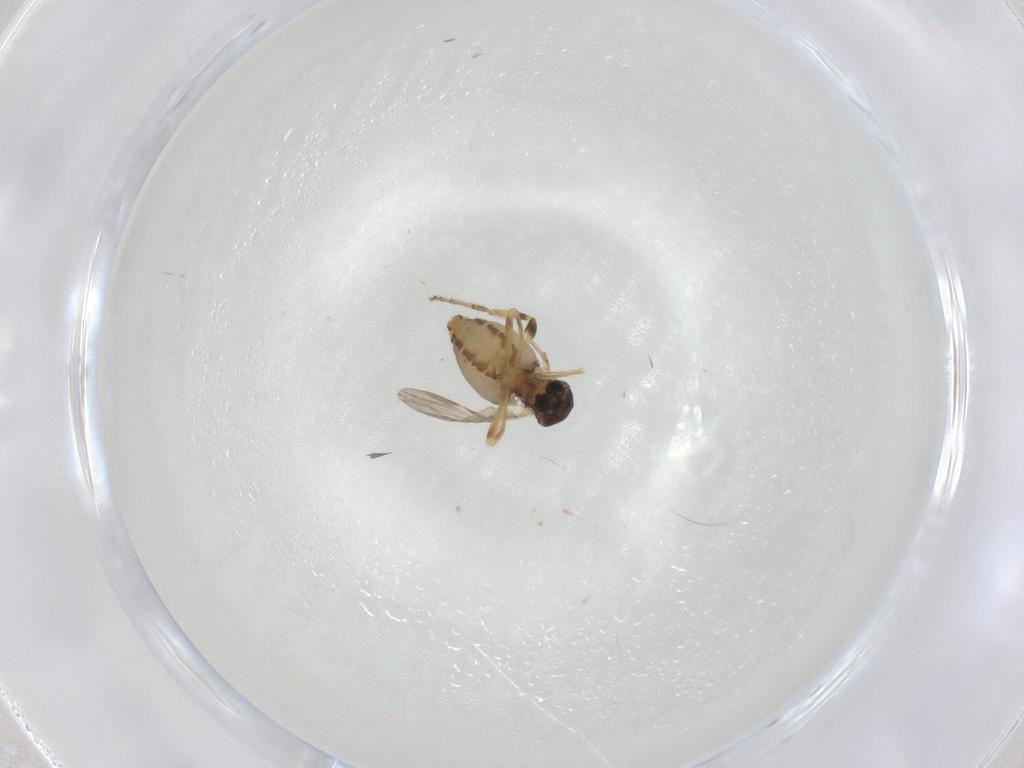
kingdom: Animalia
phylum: Arthropoda
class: Insecta
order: Diptera
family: Ceratopogonidae
